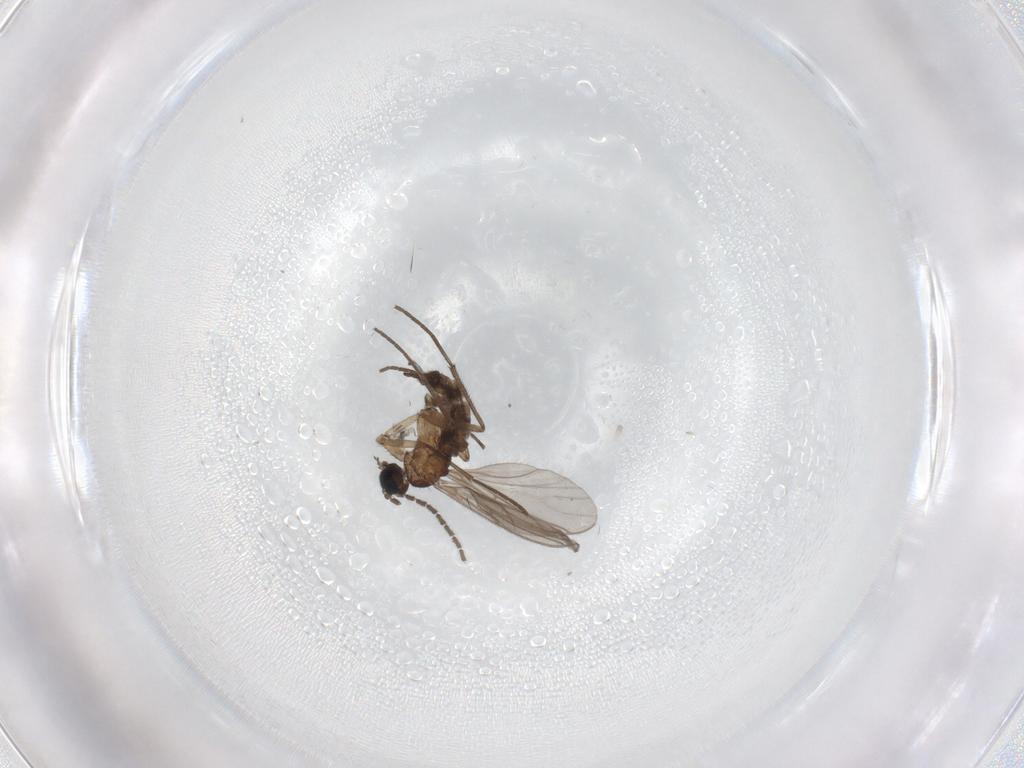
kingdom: Animalia
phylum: Arthropoda
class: Insecta
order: Diptera
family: Sciaridae
